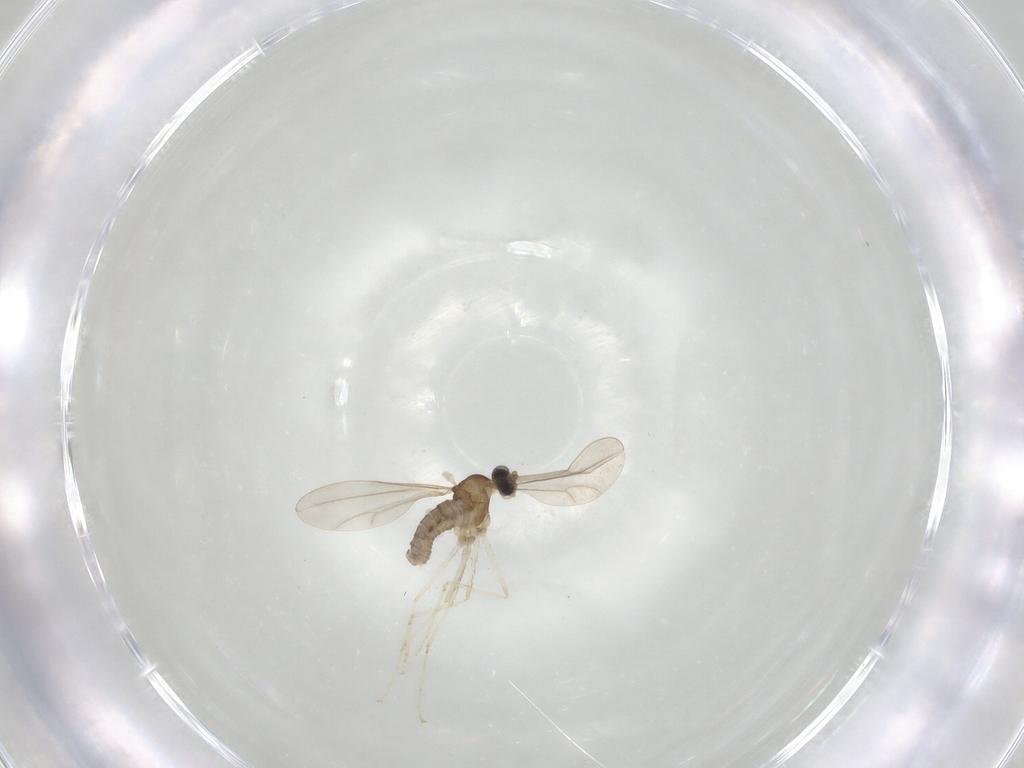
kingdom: Animalia
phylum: Arthropoda
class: Insecta
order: Diptera
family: Cecidomyiidae
